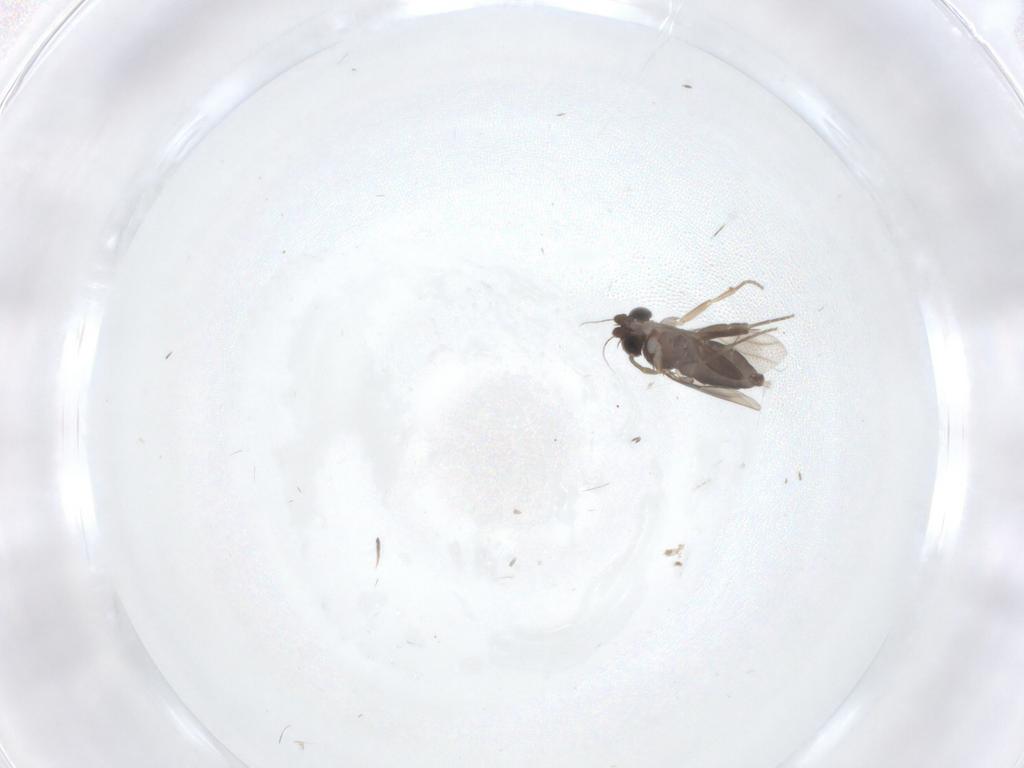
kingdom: Animalia
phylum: Arthropoda
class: Insecta
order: Diptera
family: Phoridae
